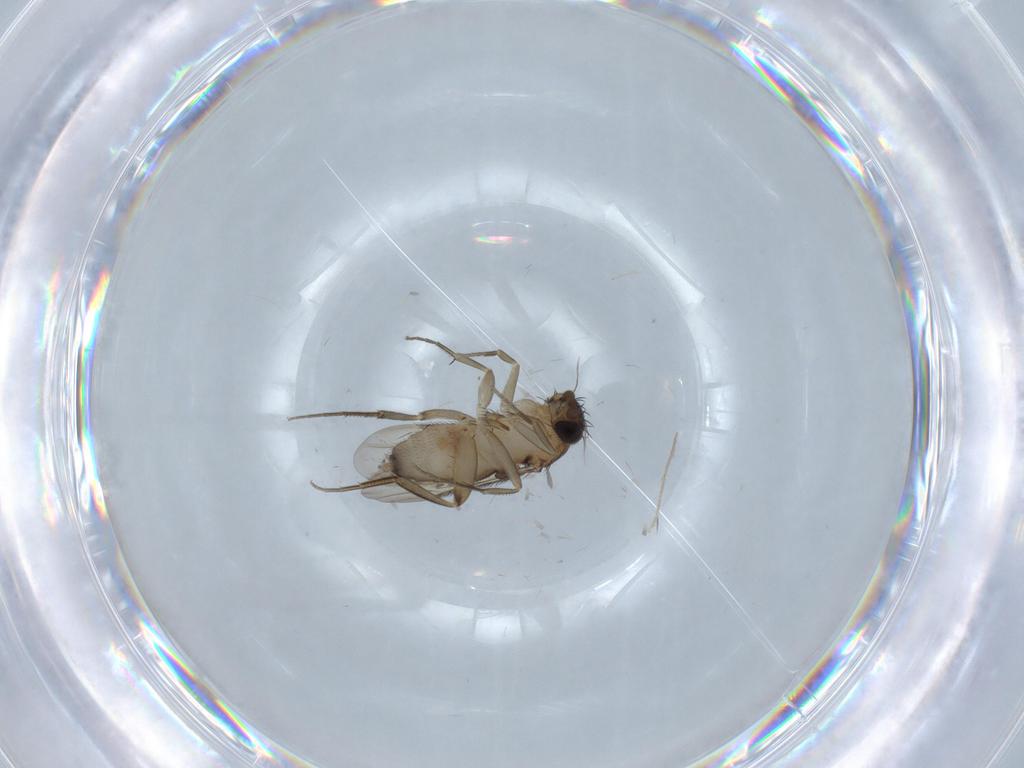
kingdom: Animalia
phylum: Arthropoda
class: Insecta
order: Diptera
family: Phoridae
